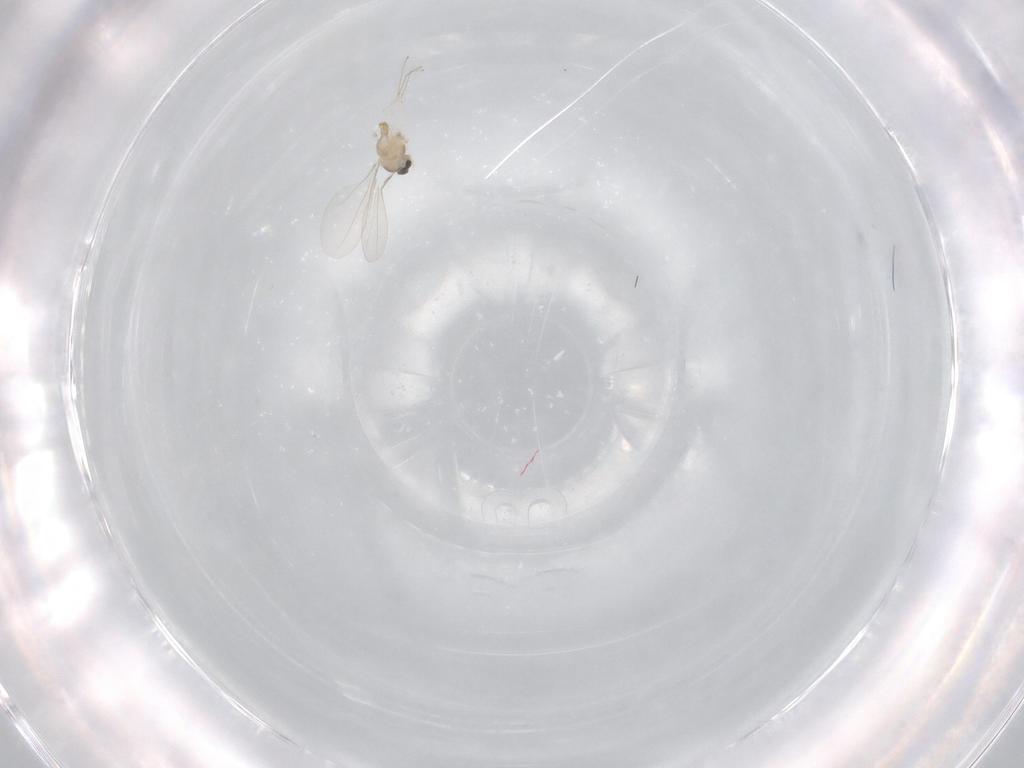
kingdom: Animalia
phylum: Arthropoda
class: Insecta
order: Diptera
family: Cecidomyiidae
